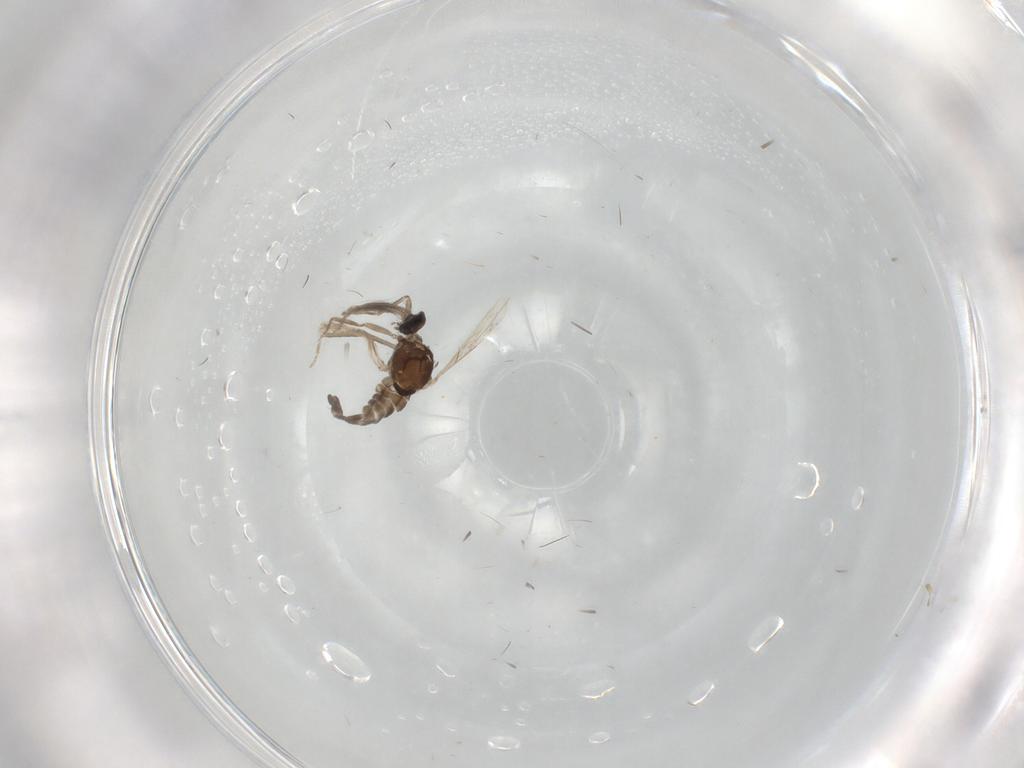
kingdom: Animalia
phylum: Arthropoda
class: Insecta
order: Diptera
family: Ceratopogonidae
